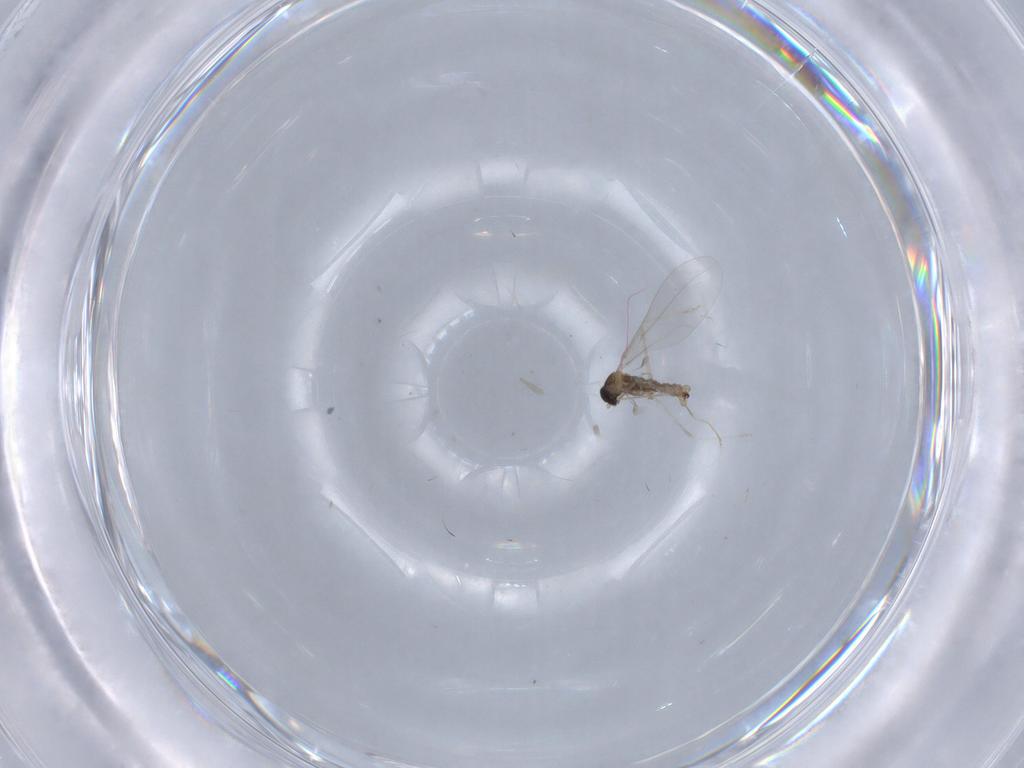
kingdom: Animalia
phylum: Arthropoda
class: Insecta
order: Diptera
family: Cecidomyiidae
